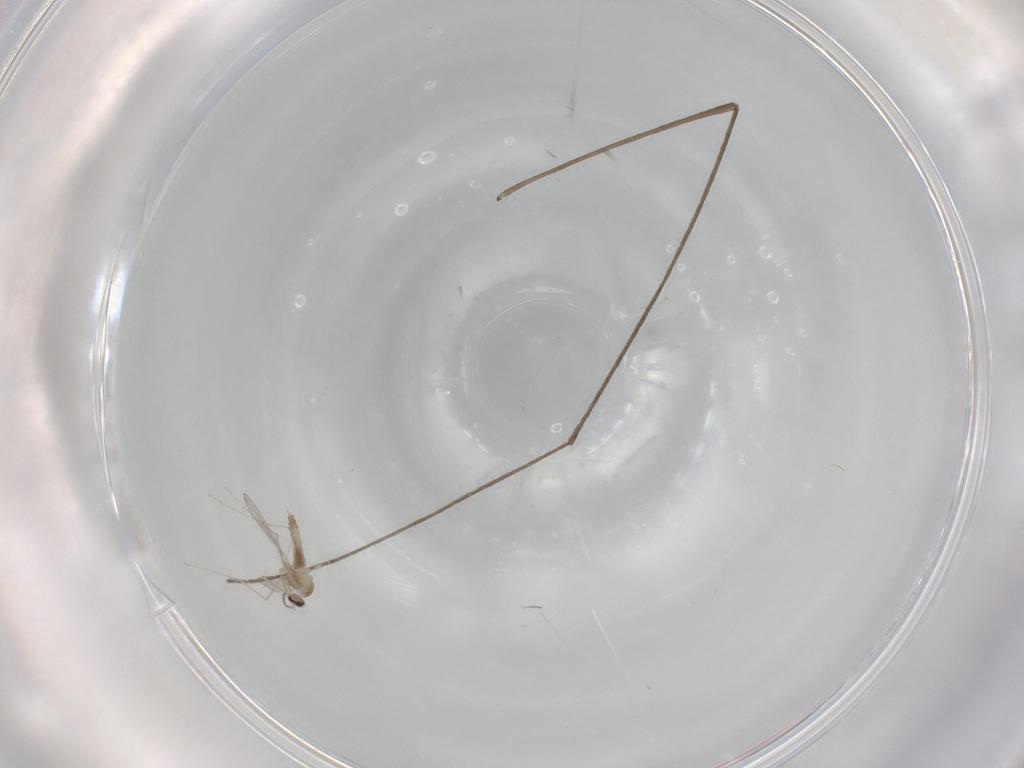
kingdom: Animalia
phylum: Arthropoda
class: Insecta
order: Diptera
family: Limoniidae
